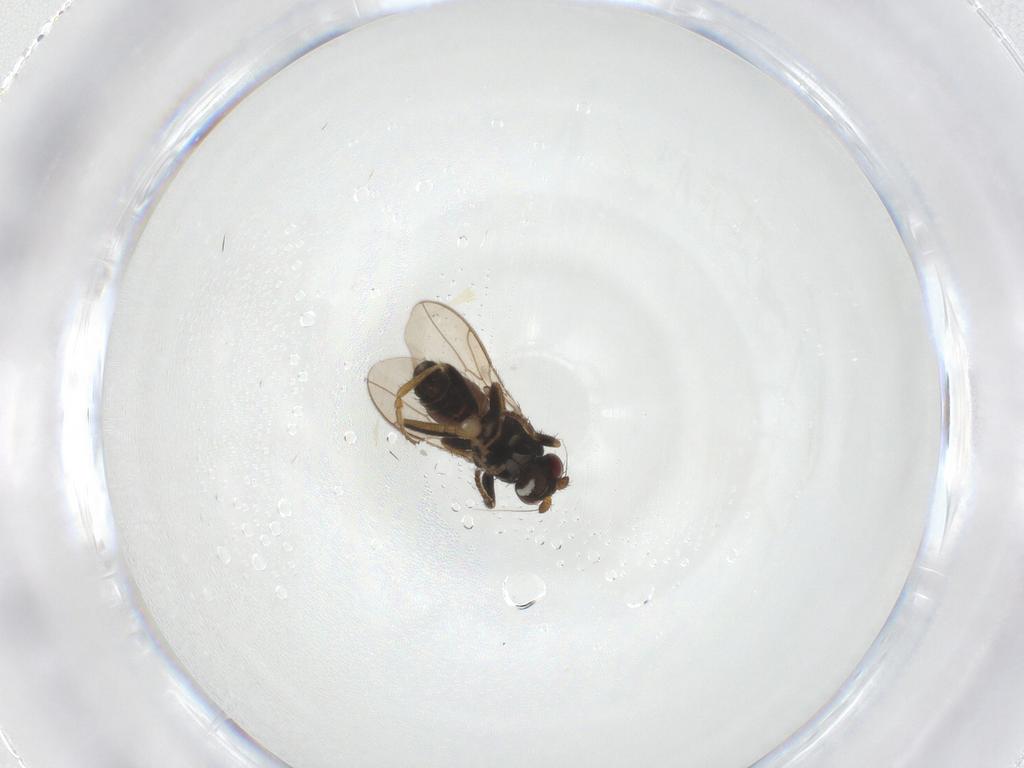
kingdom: Animalia
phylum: Arthropoda
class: Insecta
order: Diptera
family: Sphaeroceridae
